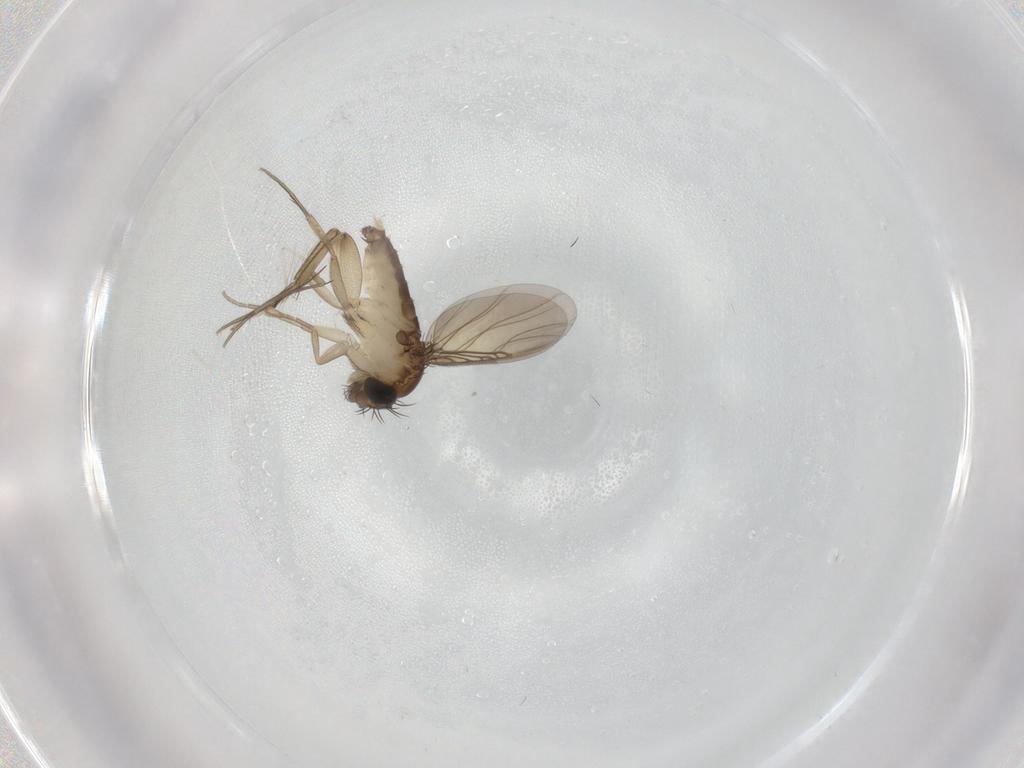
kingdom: Animalia
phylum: Arthropoda
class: Insecta
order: Diptera
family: Phoridae
